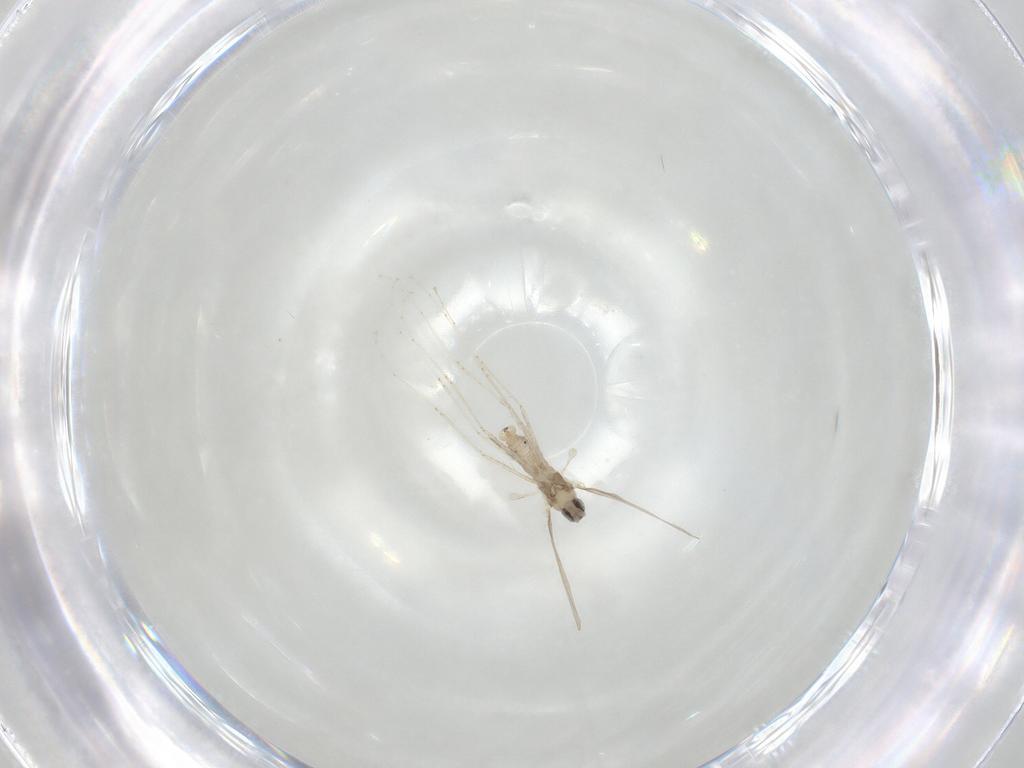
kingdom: Animalia
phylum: Arthropoda
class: Insecta
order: Diptera
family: Cecidomyiidae
